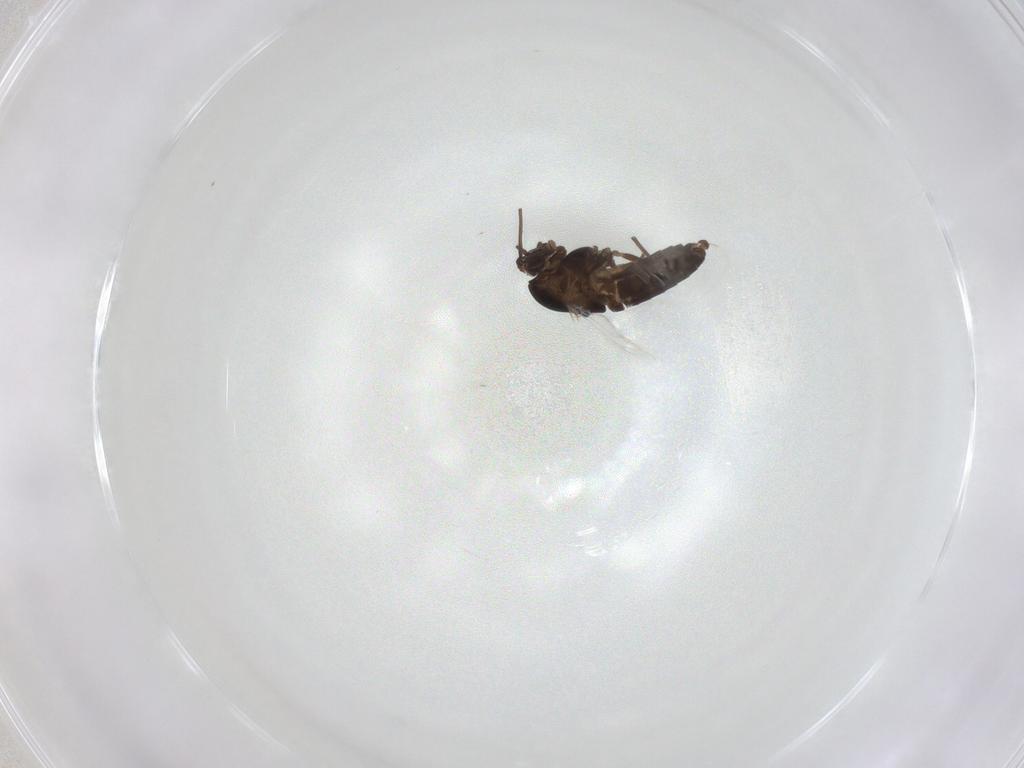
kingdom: Animalia
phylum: Arthropoda
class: Insecta
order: Diptera
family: Chironomidae
